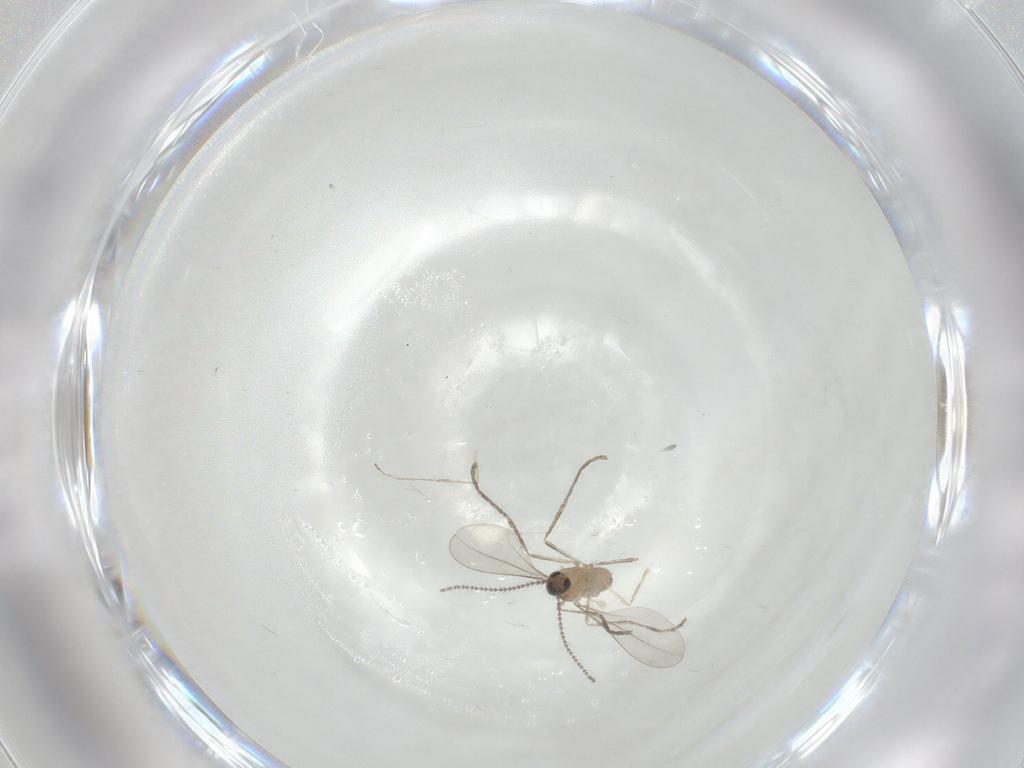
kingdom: Animalia
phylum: Arthropoda
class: Insecta
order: Diptera
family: Cecidomyiidae
